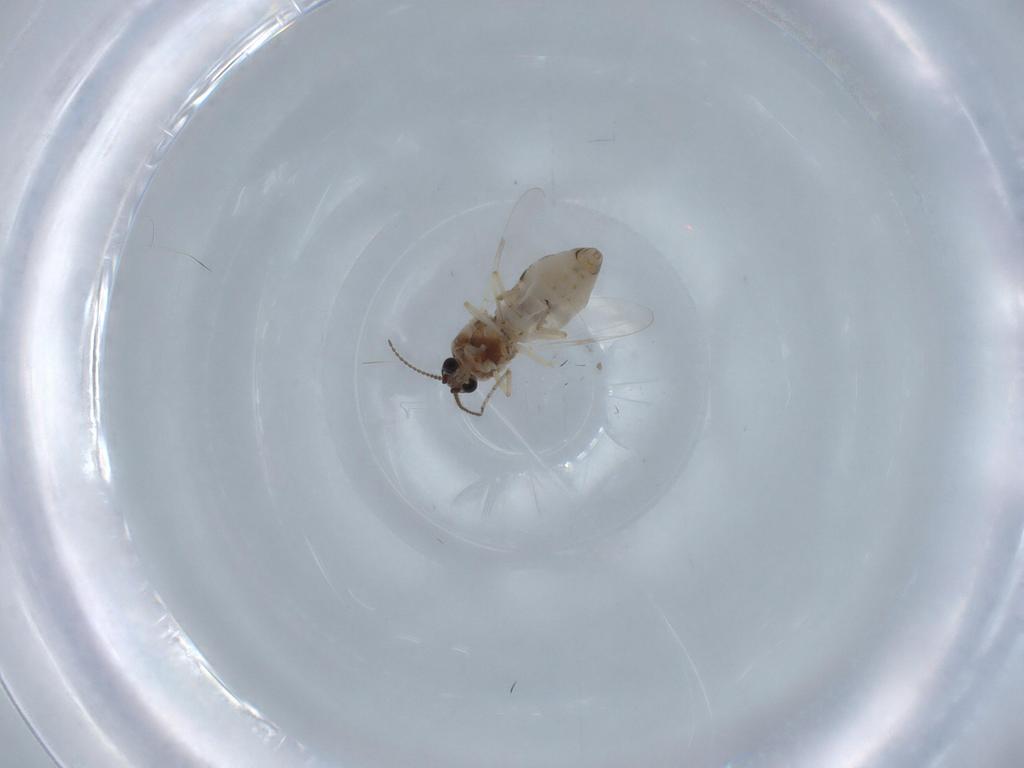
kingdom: Animalia
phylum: Arthropoda
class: Insecta
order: Diptera
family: Ceratopogonidae
